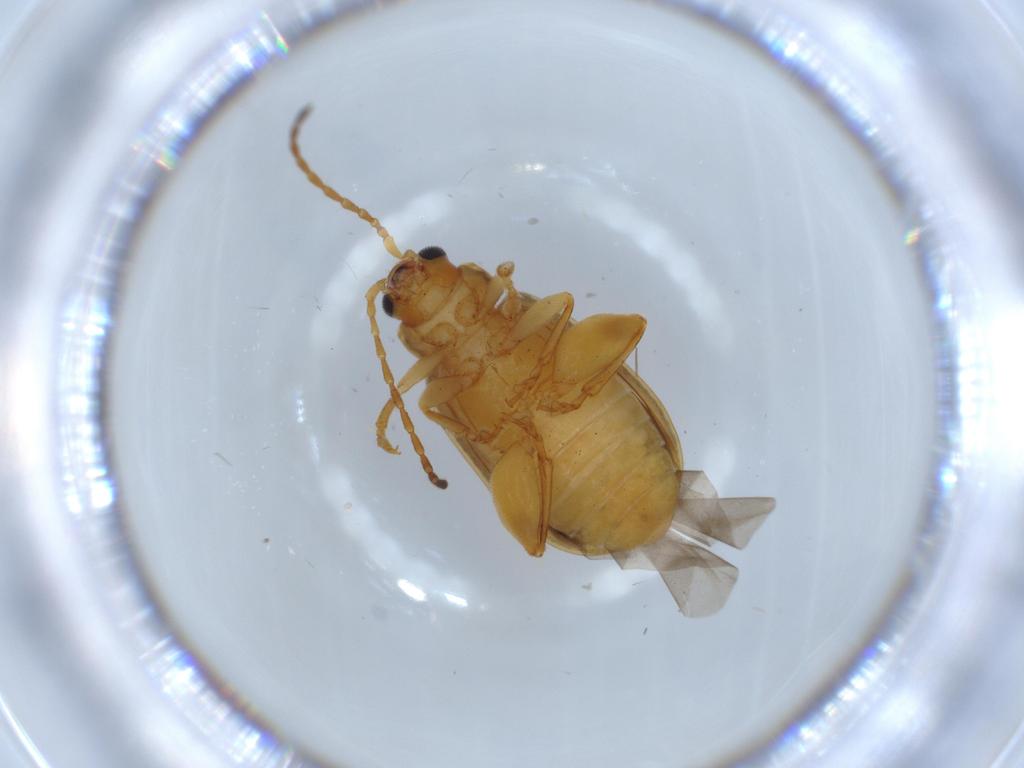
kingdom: Animalia
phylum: Arthropoda
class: Insecta
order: Coleoptera
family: Chrysomelidae
